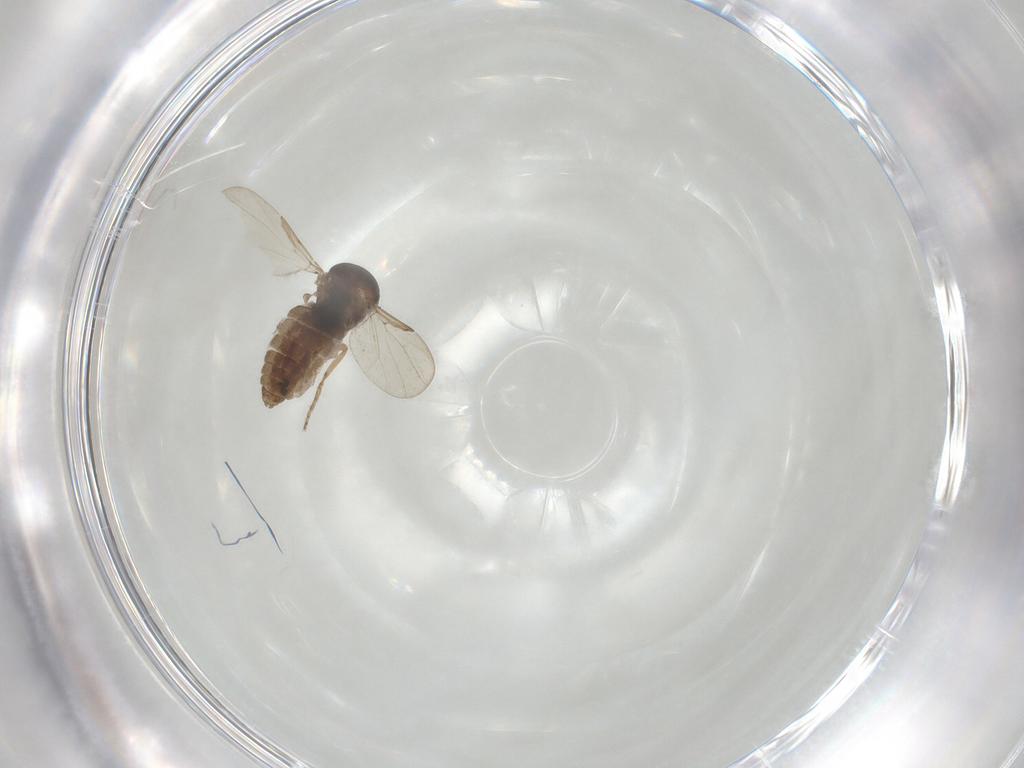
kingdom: Animalia
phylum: Arthropoda
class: Insecta
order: Diptera
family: Ceratopogonidae
